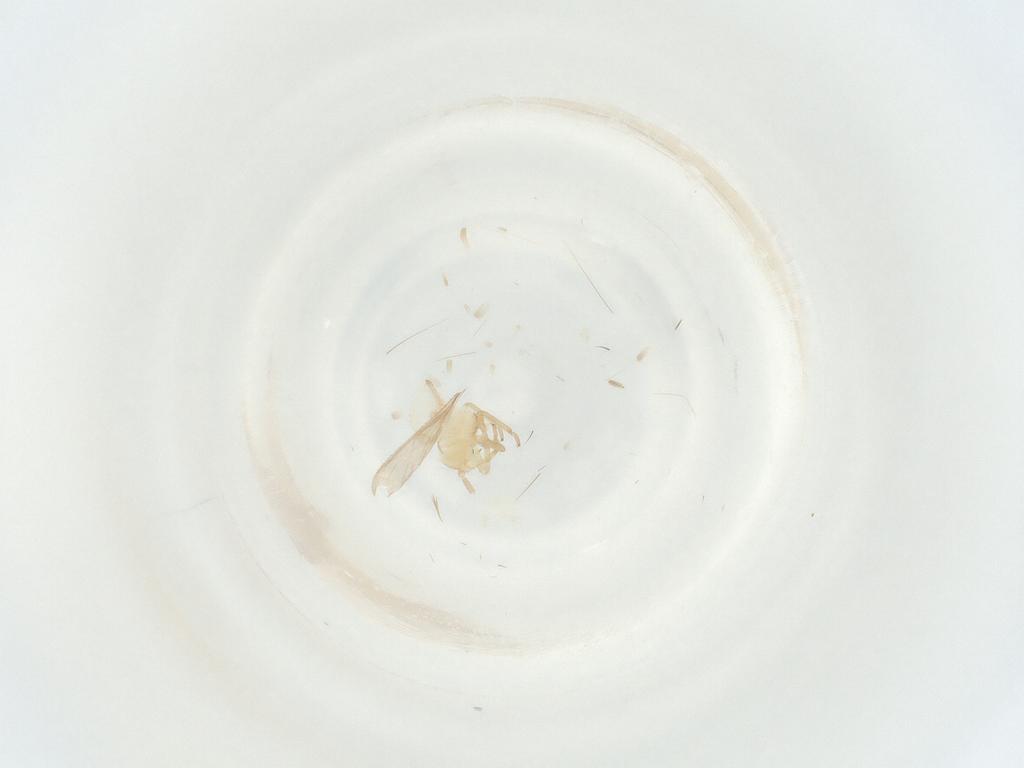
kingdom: Animalia
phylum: Arthropoda
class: Insecta
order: Hemiptera
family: Miridae
